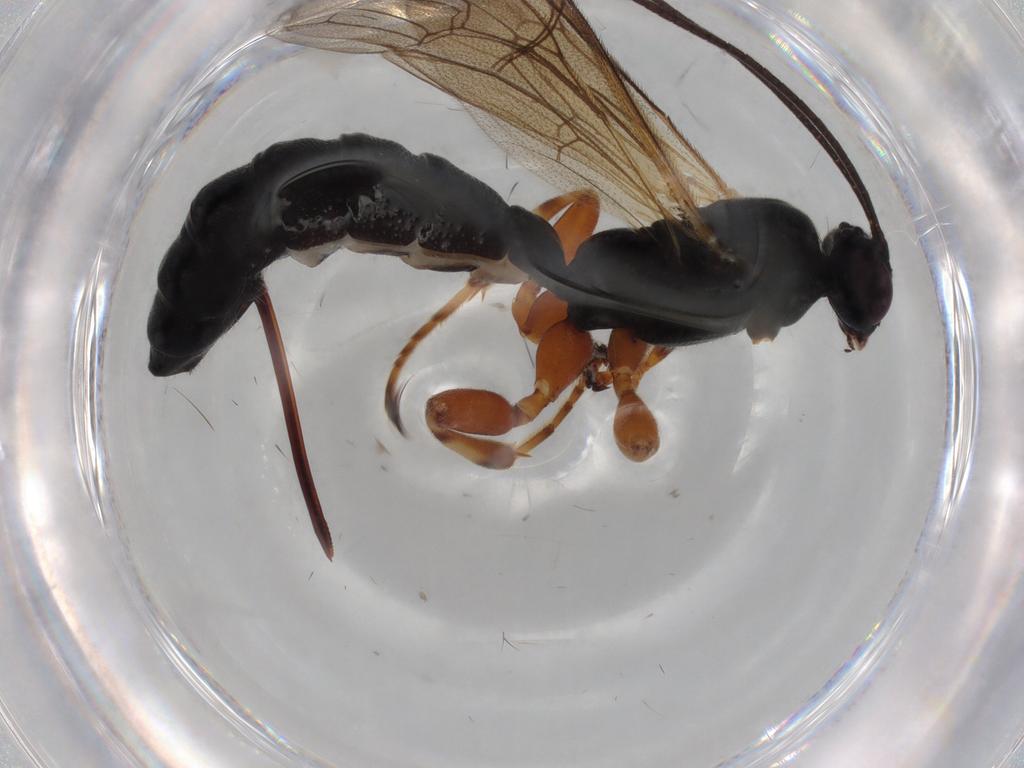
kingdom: Animalia
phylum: Arthropoda
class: Insecta
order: Hymenoptera
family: Ichneumonidae
